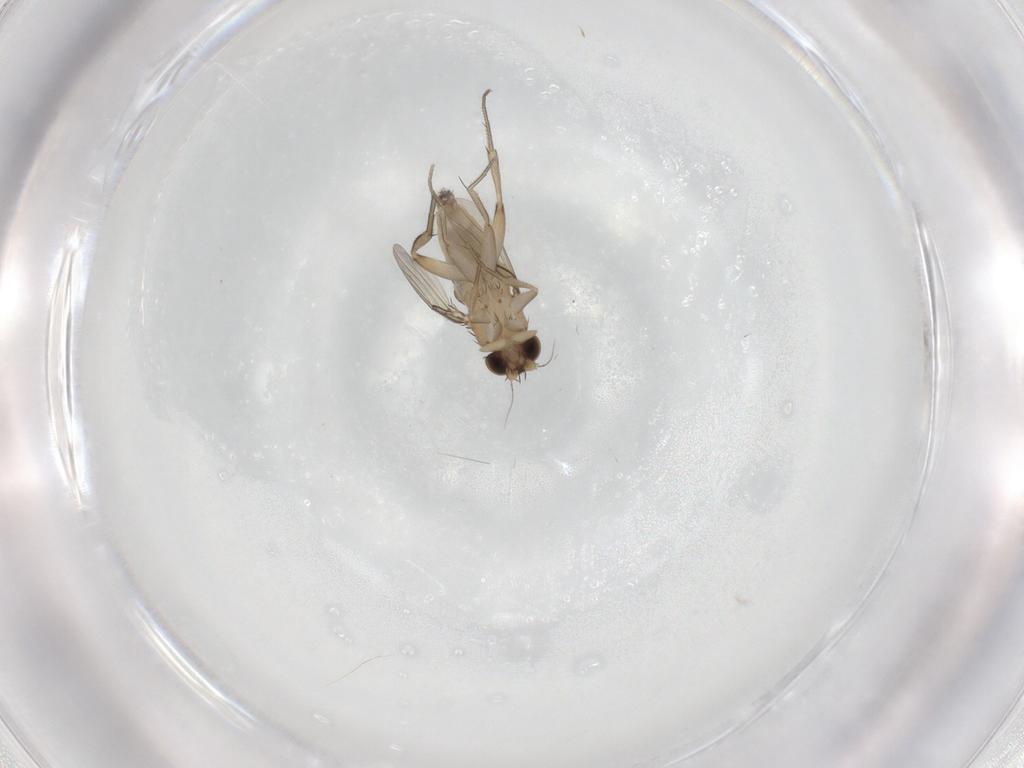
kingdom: Animalia
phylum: Arthropoda
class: Insecta
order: Diptera
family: Phoridae
